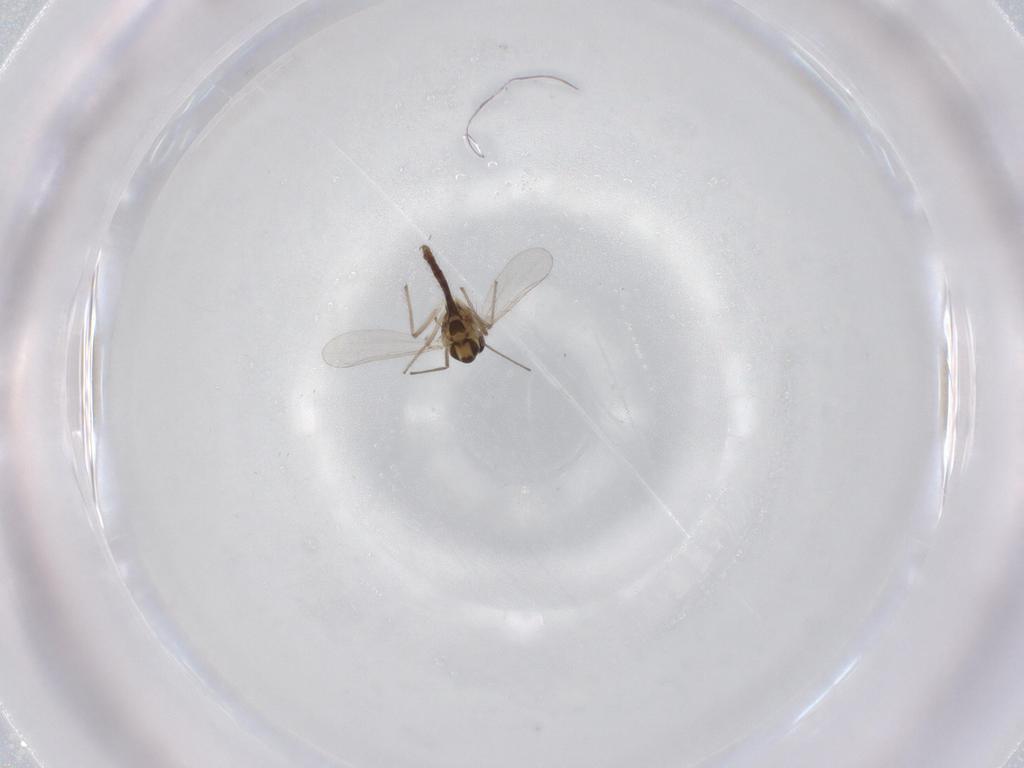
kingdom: Animalia
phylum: Arthropoda
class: Insecta
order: Diptera
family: Chironomidae
